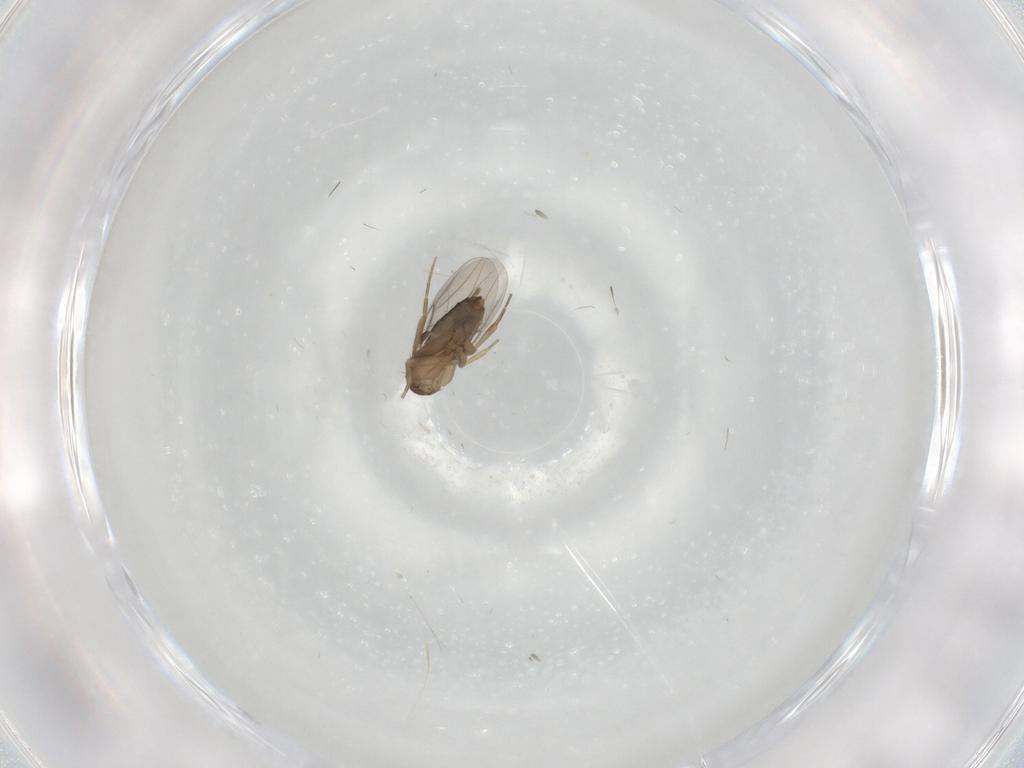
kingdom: Animalia
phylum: Arthropoda
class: Insecta
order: Diptera
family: Cecidomyiidae
